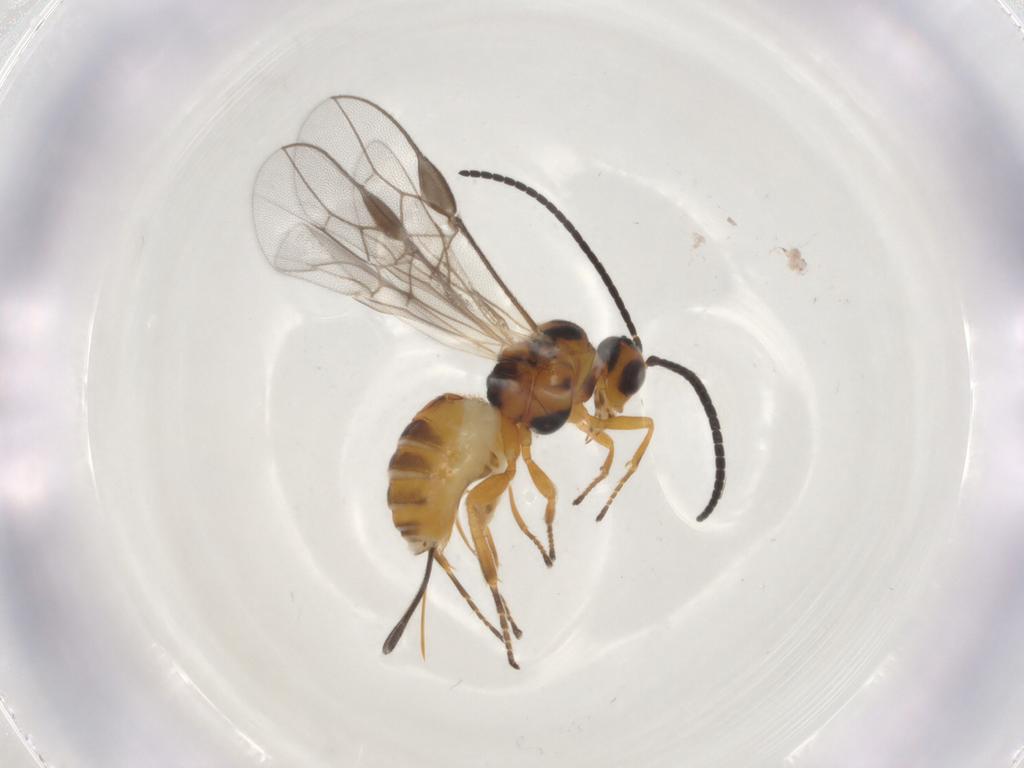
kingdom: Animalia
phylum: Arthropoda
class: Insecta
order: Hymenoptera
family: Braconidae
